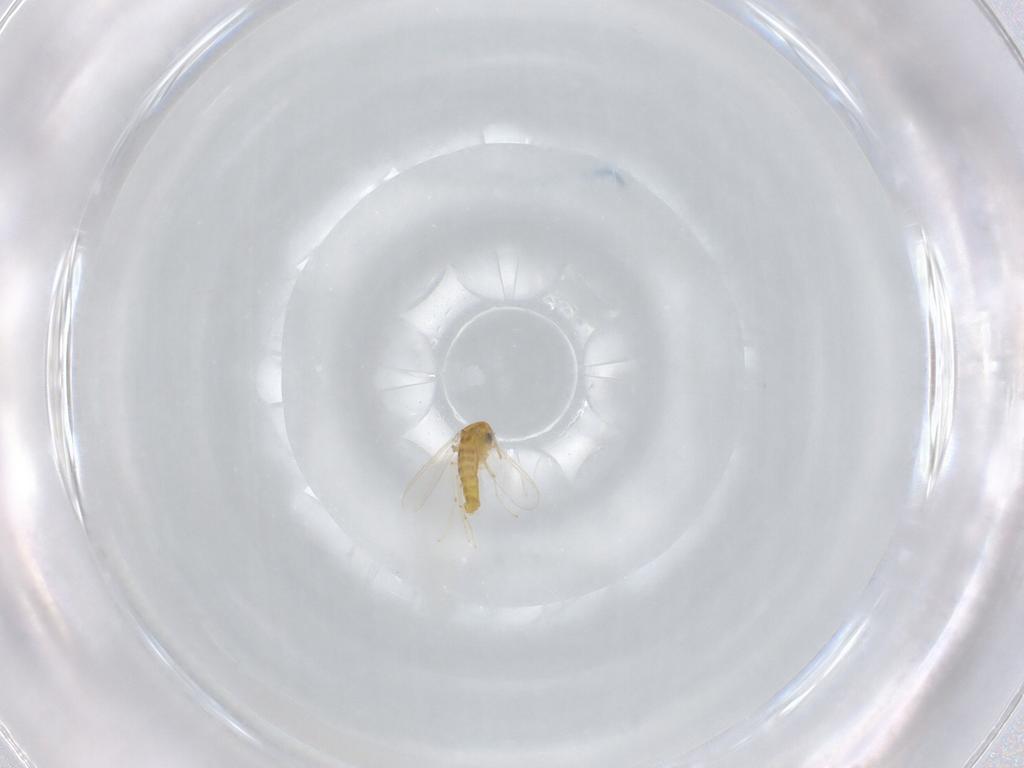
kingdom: Animalia
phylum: Arthropoda
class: Insecta
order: Diptera
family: Chironomidae
